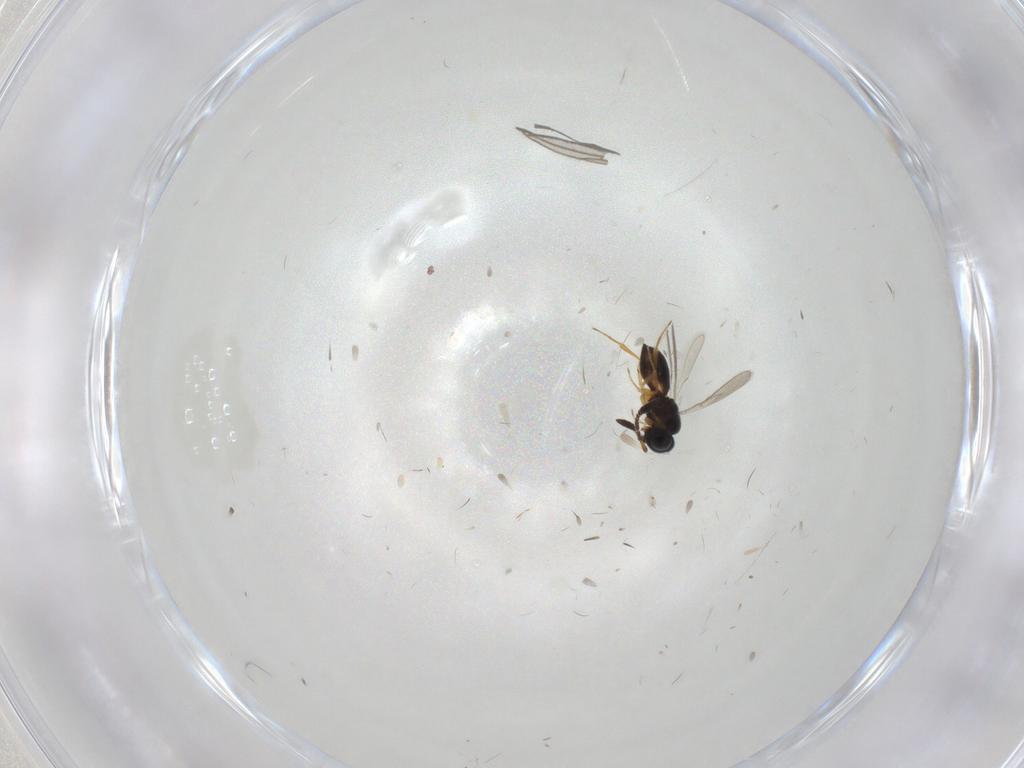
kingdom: Animalia
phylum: Arthropoda
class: Insecta
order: Hymenoptera
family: Scelionidae
